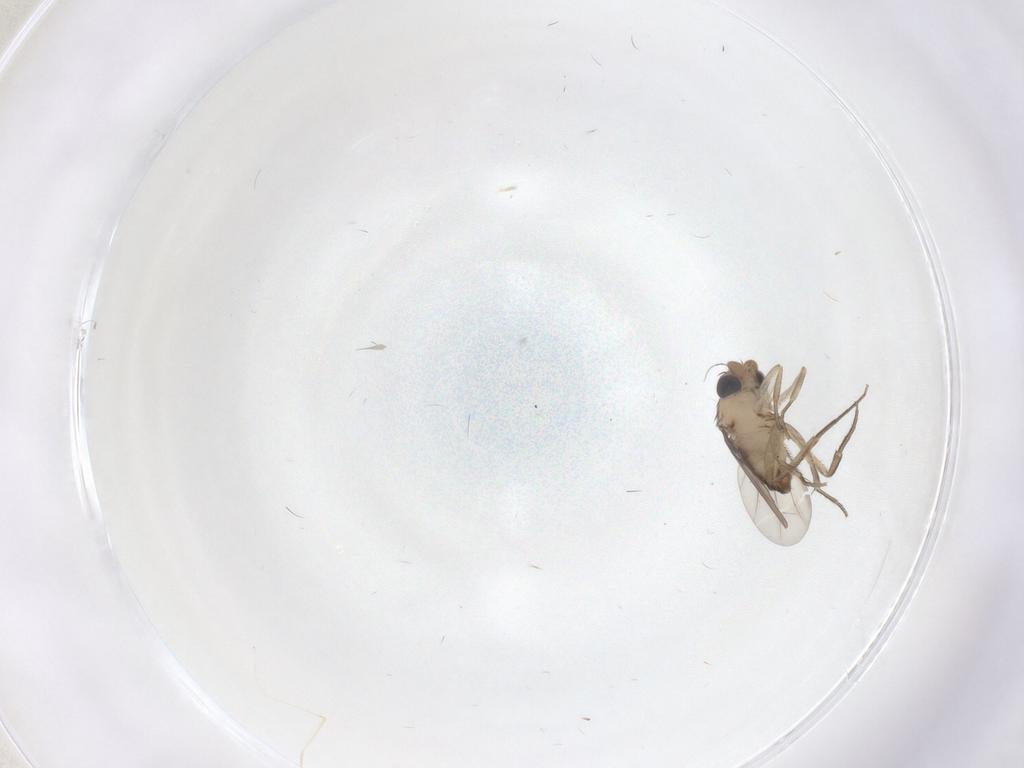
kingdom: Animalia
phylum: Arthropoda
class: Insecta
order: Diptera
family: Phoridae
